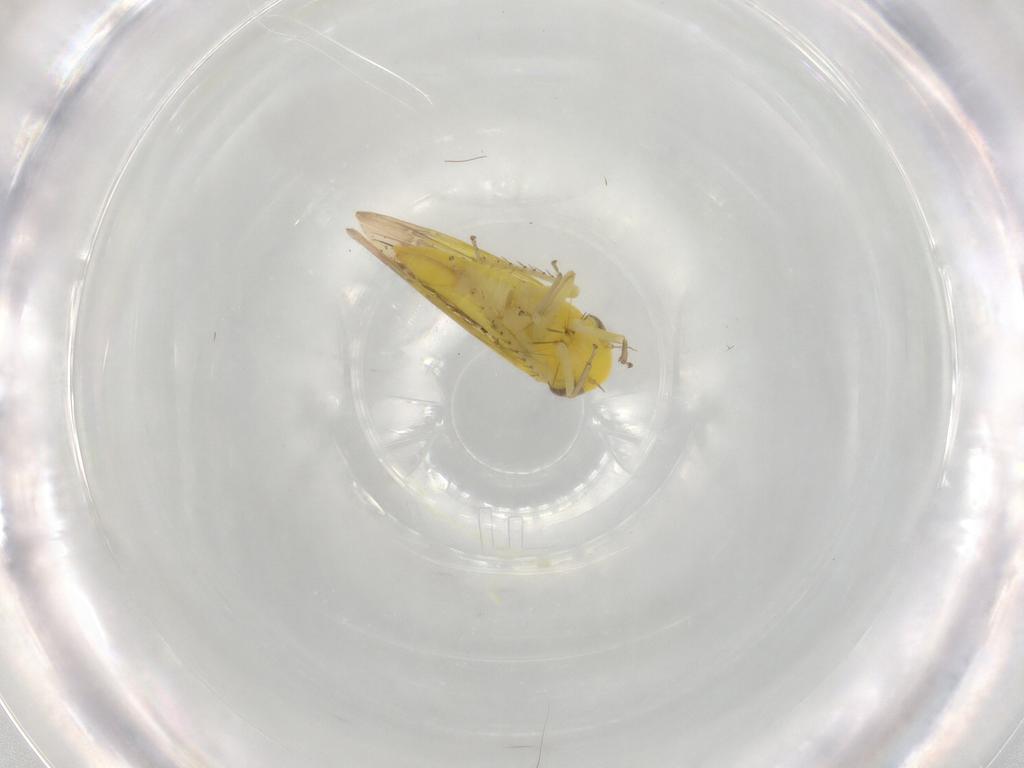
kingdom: Animalia
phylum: Arthropoda
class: Insecta
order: Hemiptera
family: Cicadellidae
